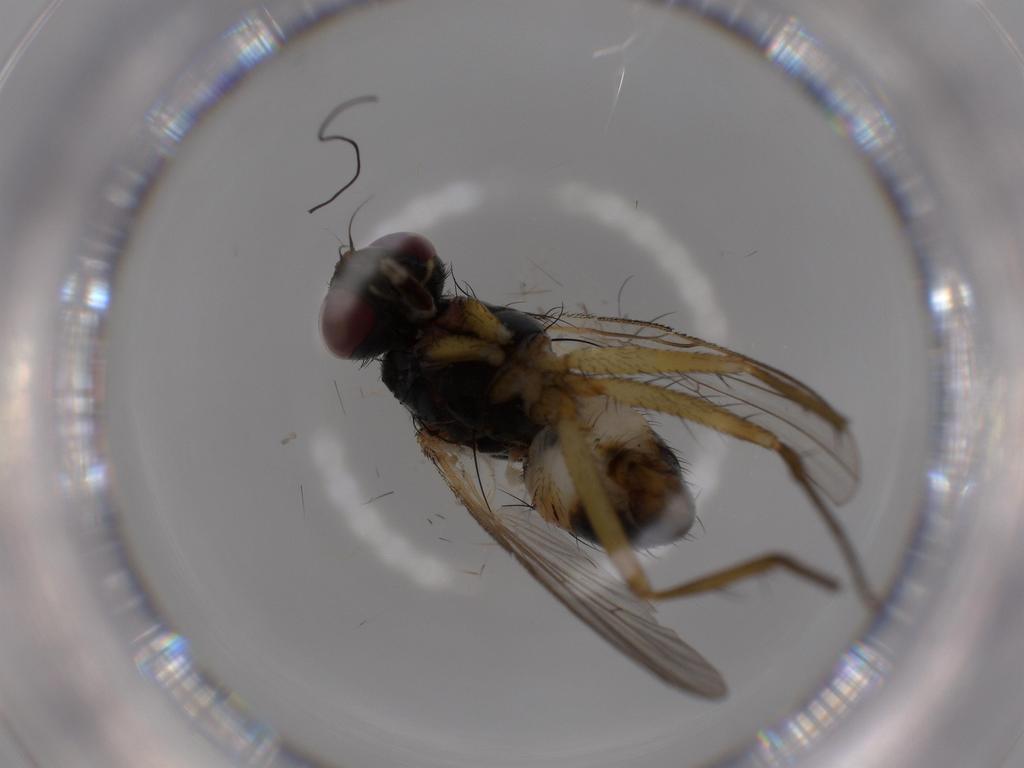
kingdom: Animalia
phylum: Arthropoda
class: Insecta
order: Diptera
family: Muscidae
